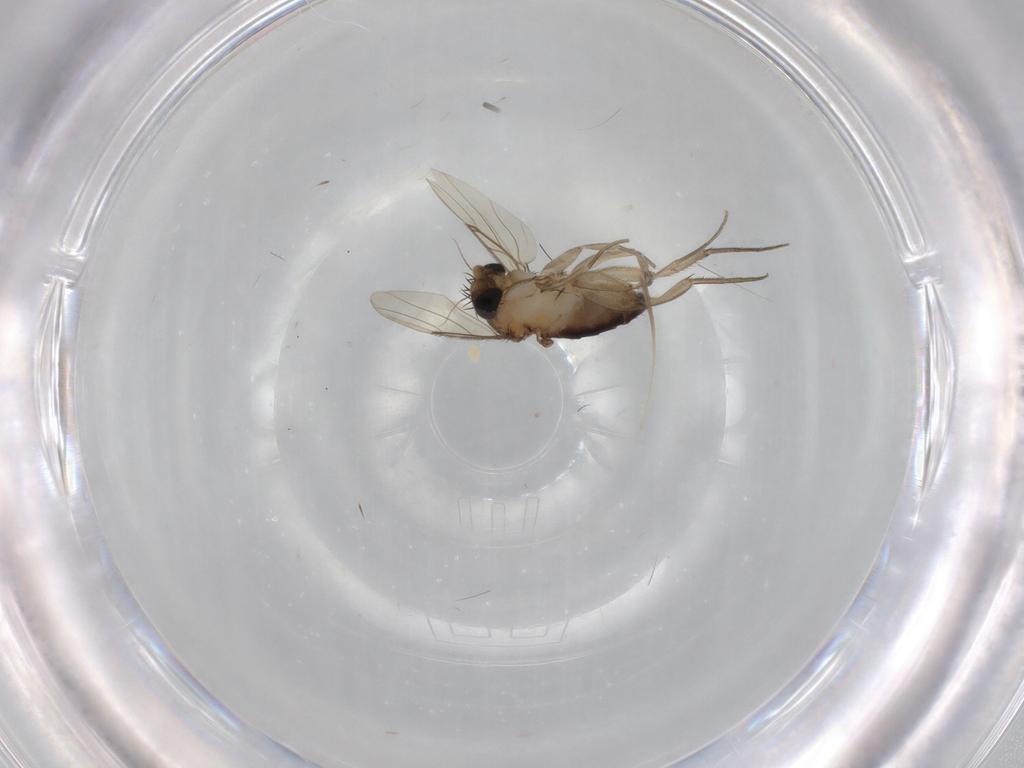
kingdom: Animalia
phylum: Arthropoda
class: Insecta
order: Diptera
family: Phoridae
